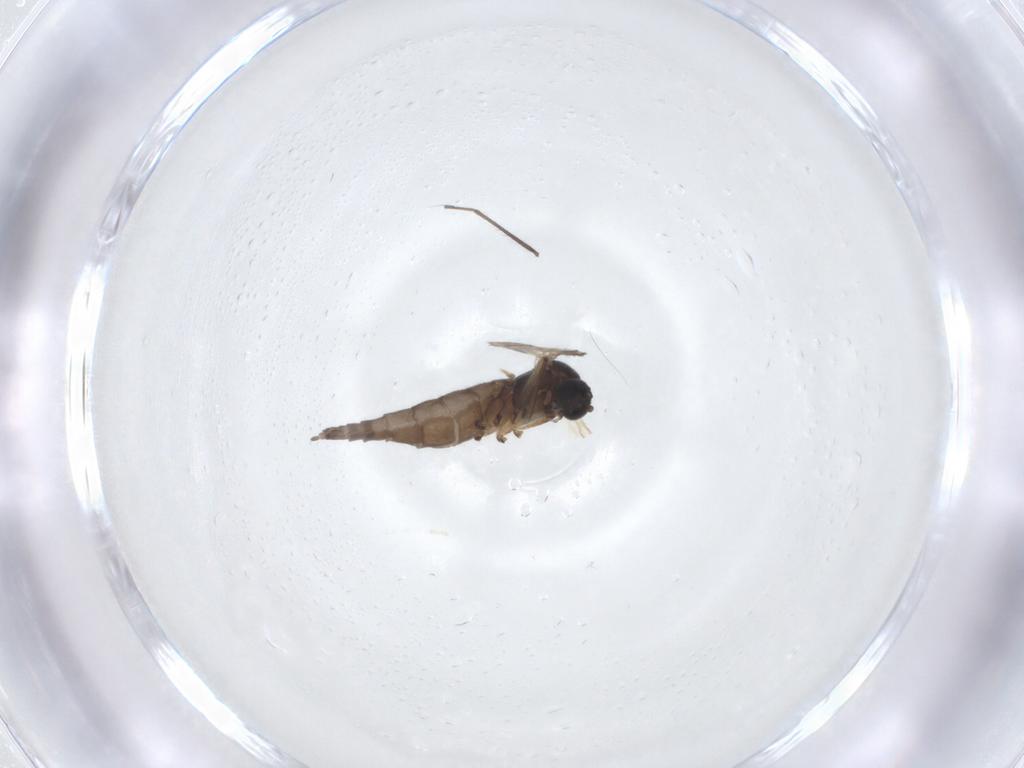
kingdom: Animalia
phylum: Arthropoda
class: Insecta
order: Diptera
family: Sciaridae
